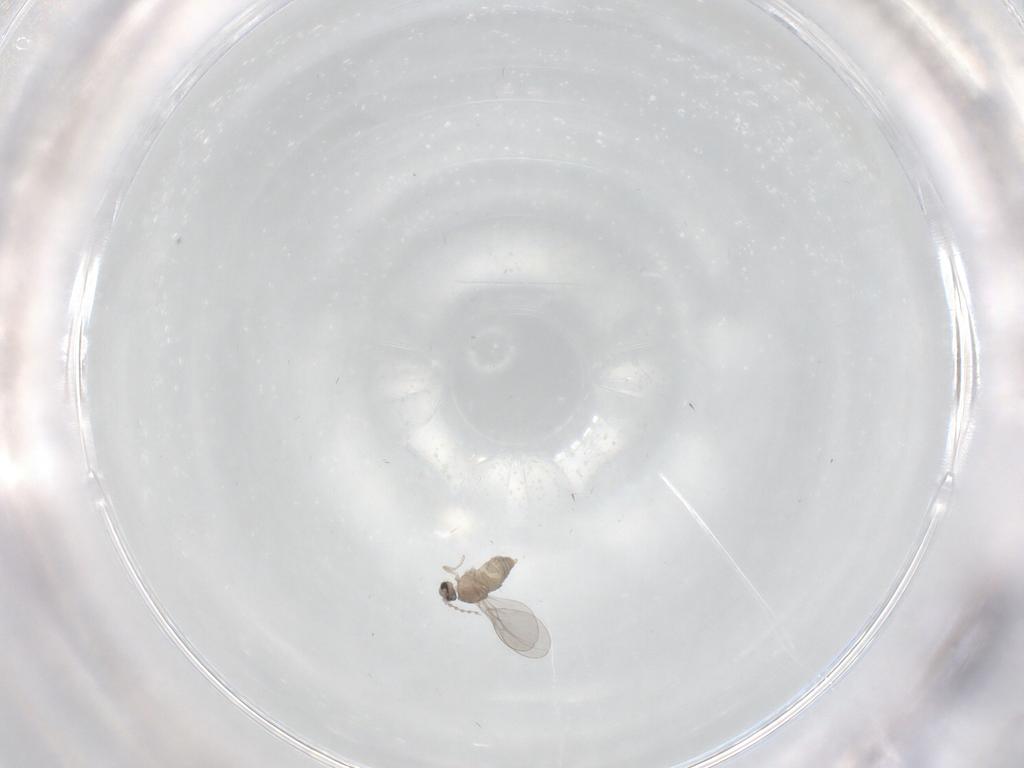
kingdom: Animalia
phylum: Arthropoda
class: Insecta
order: Diptera
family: Cecidomyiidae
